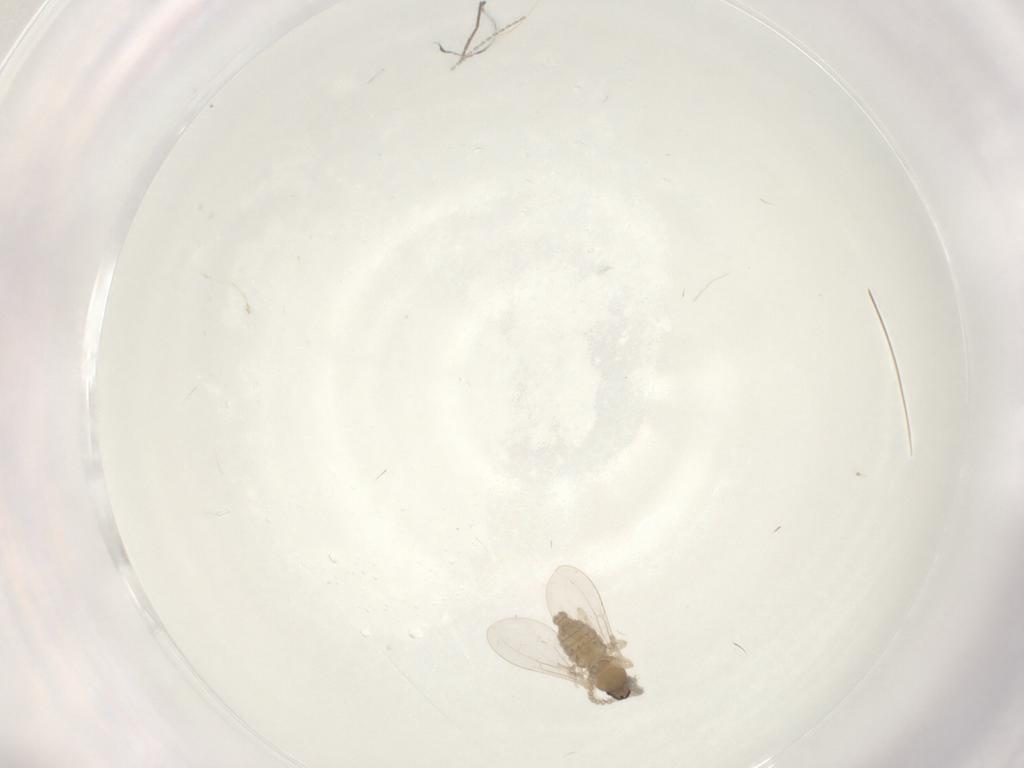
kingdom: Animalia
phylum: Arthropoda
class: Insecta
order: Diptera
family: Cecidomyiidae
